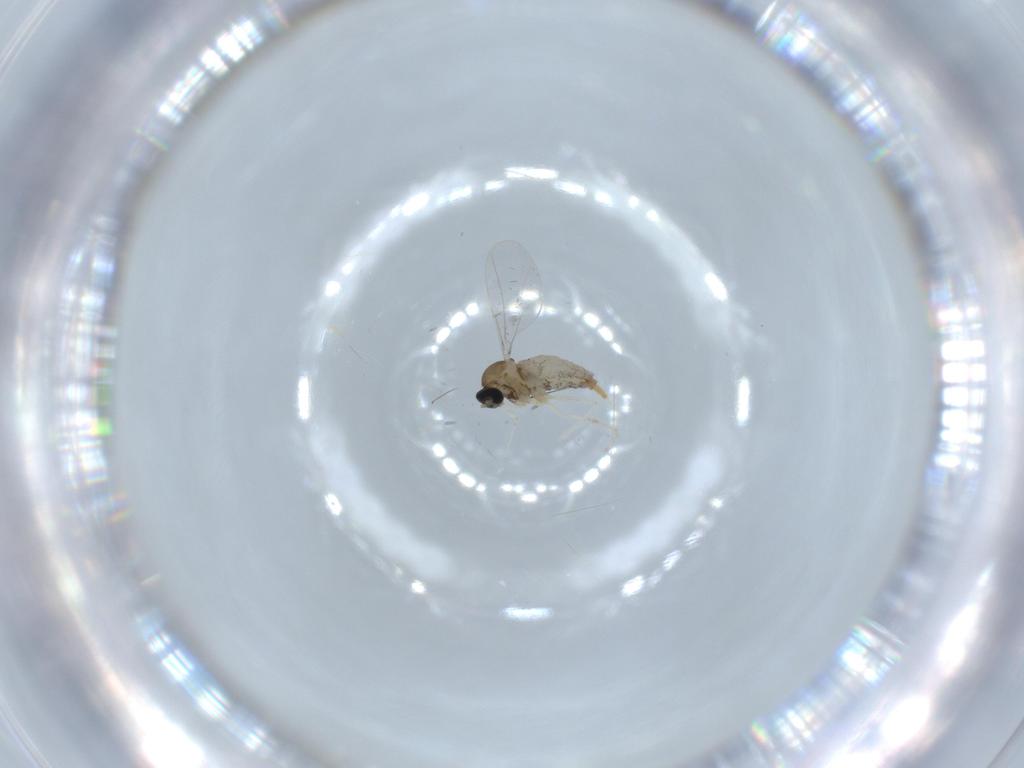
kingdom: Animalia
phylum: Arthropoda
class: Insecta
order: Diptera
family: Cecidomyiidae
